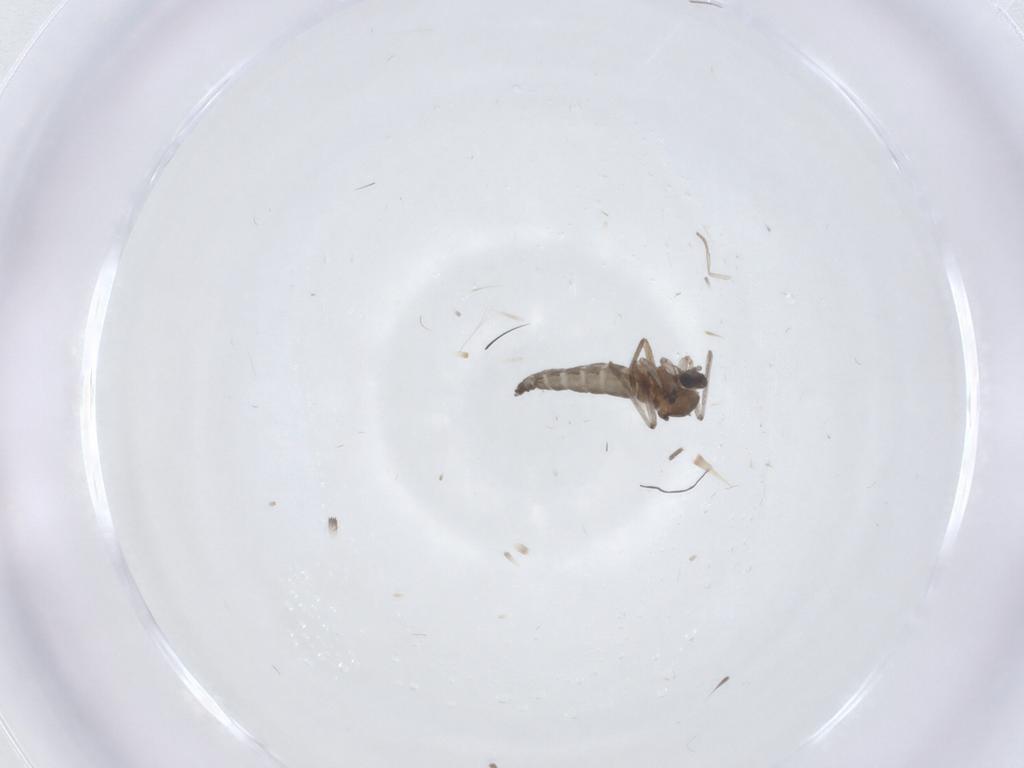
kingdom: Animalia
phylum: Arthropoda
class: Insecta
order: Diptera
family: Cecidomyiidae
